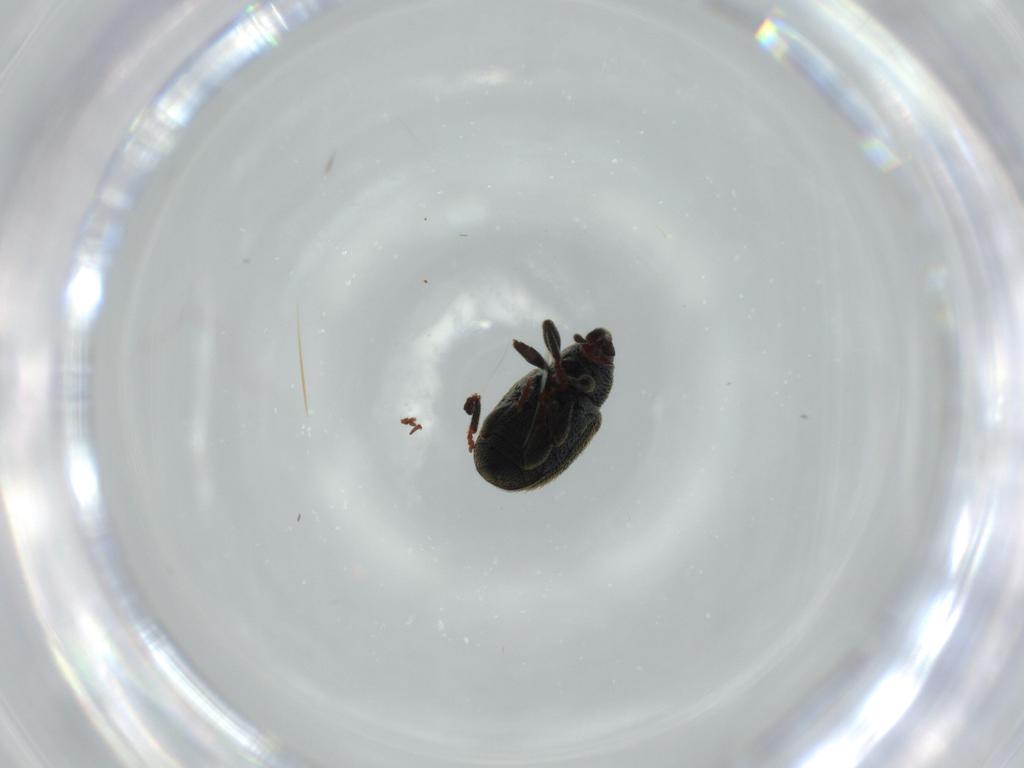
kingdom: Animalia
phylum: Arthropoda
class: Insecta
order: Coleoptera
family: Curculionidae
